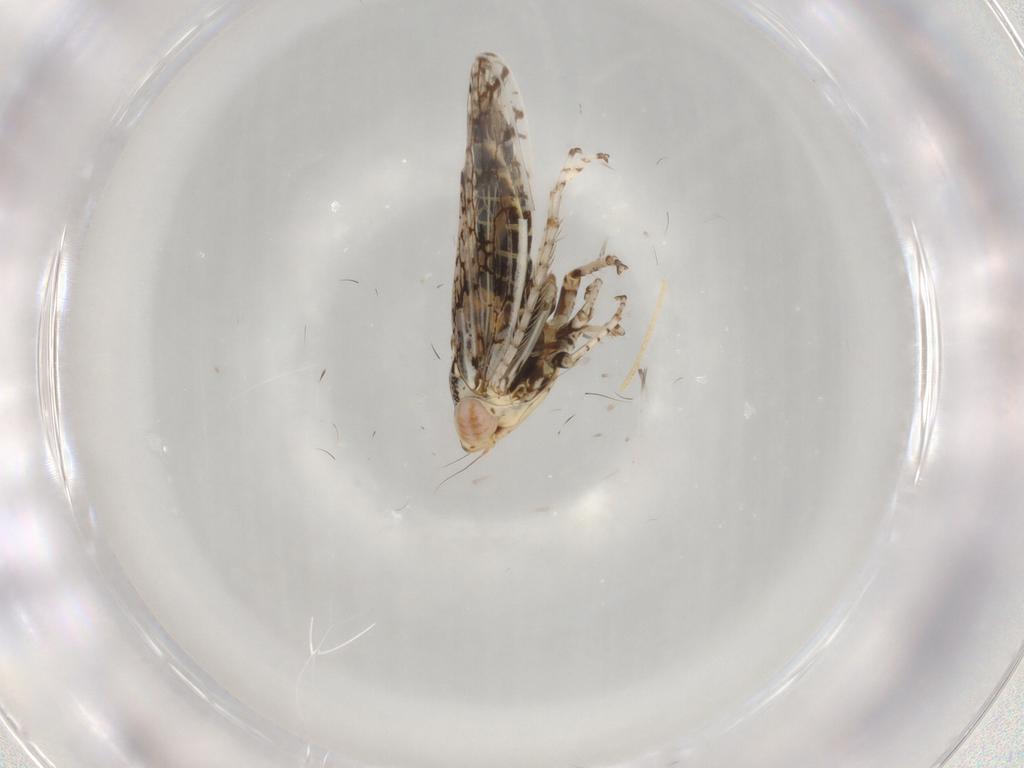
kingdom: Animalia
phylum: Arthropoda
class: Insecta
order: Hemiptera
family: Cicadellidae
